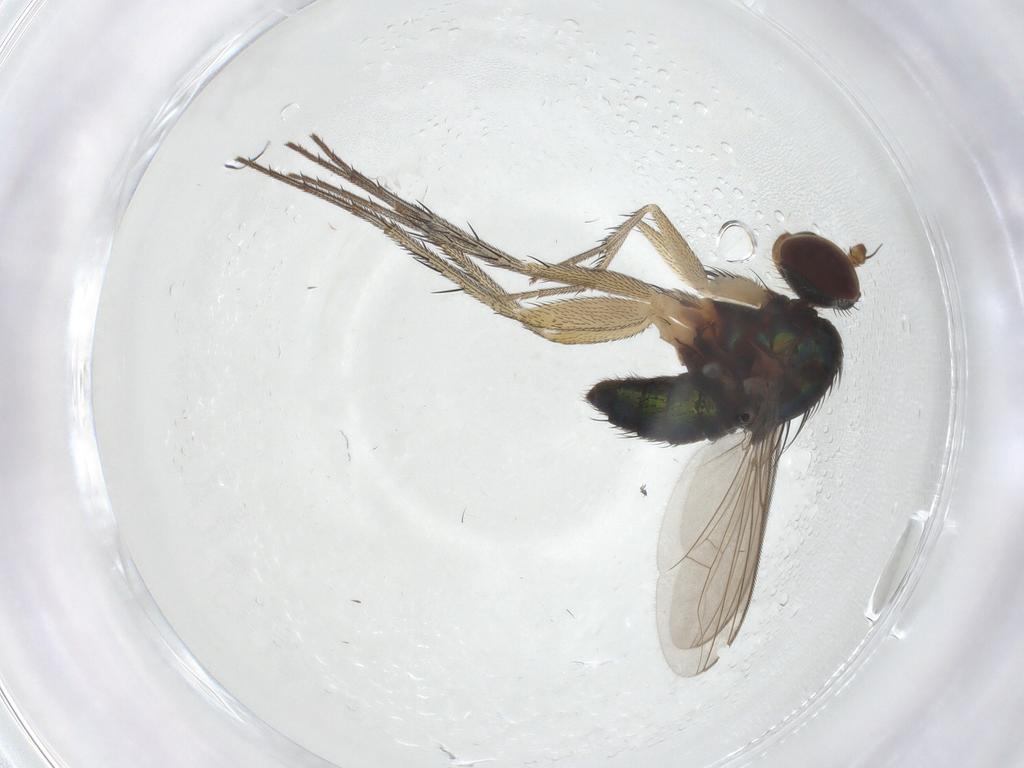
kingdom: Animalia
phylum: Arthropoda
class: Insecta
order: Diptera
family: Dolichopodidae
